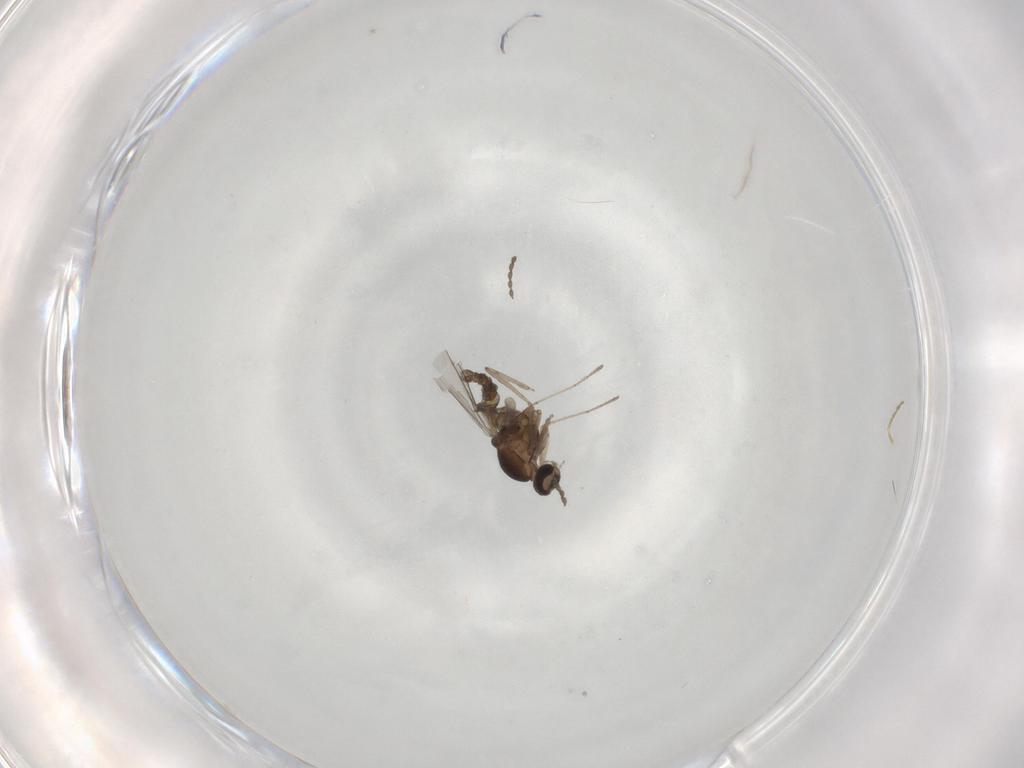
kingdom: Animalia
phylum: Arthropoda
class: Insecta
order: Diptera
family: Cecidomyiidae
